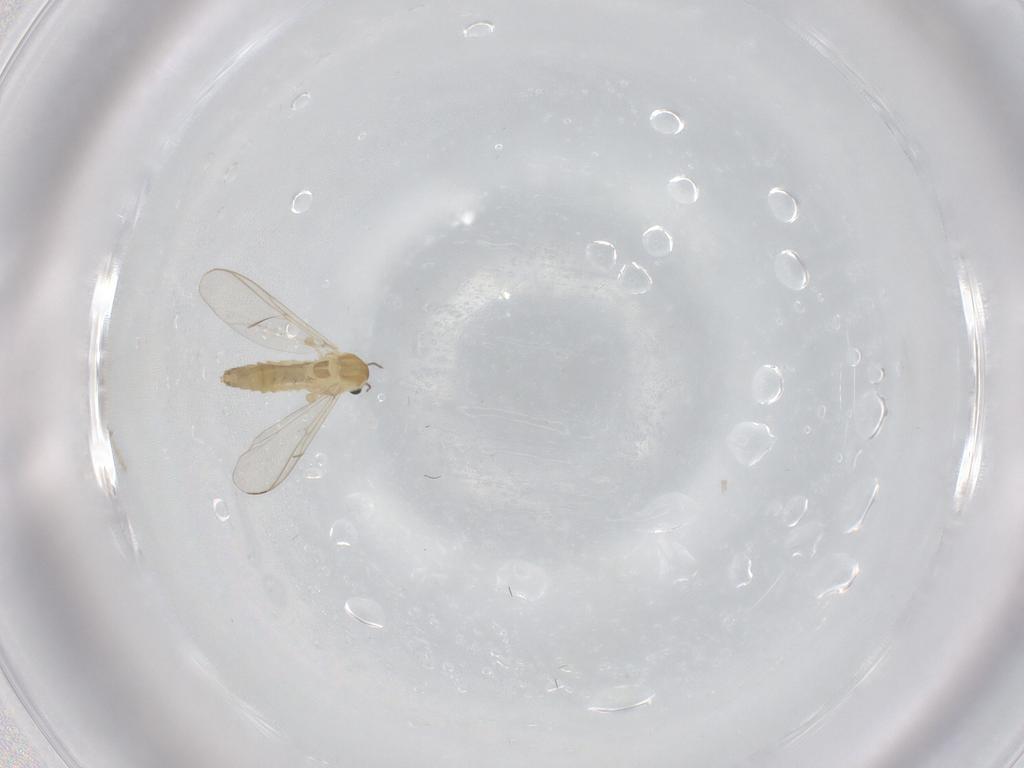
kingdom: Animalia
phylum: Arthropoda
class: Insecta
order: Diptera
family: Chironomidae
